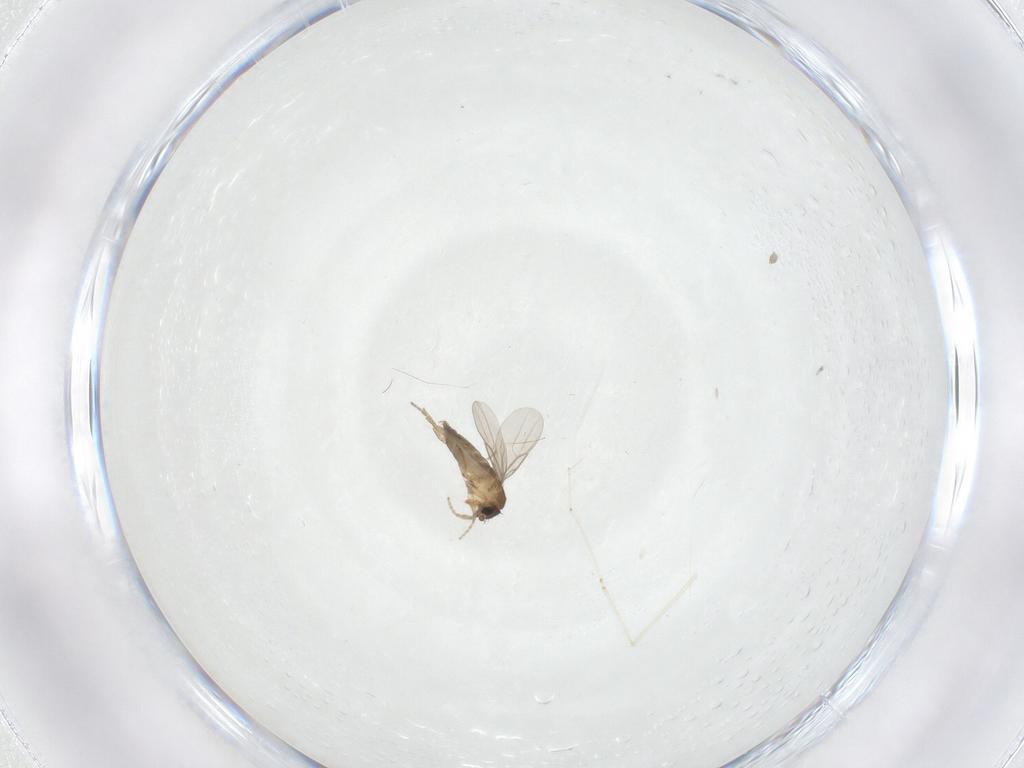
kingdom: Animalia
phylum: Arthropoda
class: Insecta
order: Diptera
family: Cecidomyiidae
